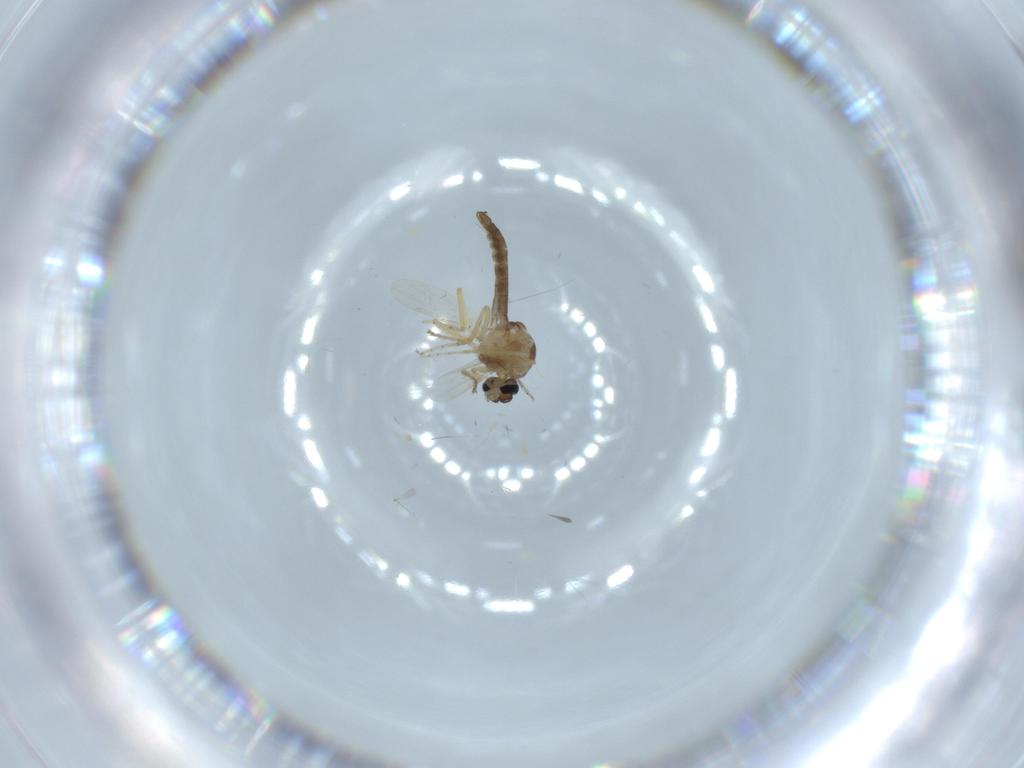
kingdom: Animalia
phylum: Arthropoda
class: Insecta
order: Diptera
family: Ceratopogonidae
